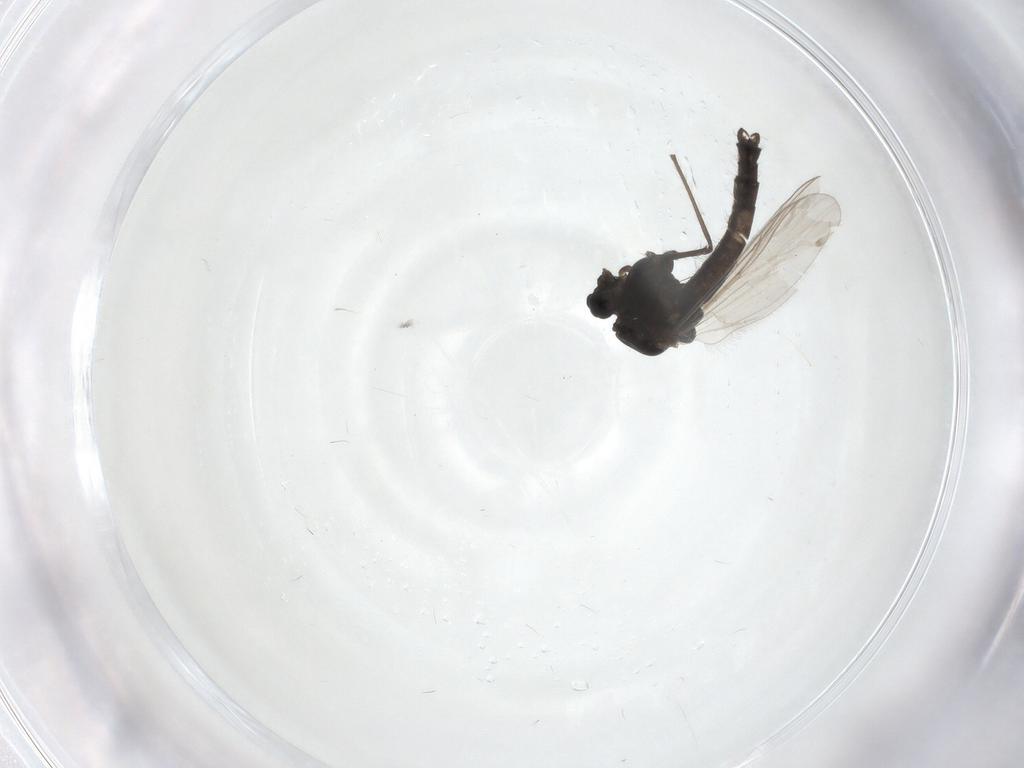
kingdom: Animalia
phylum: Arthropoda
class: Insecta
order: Diptera
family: Chironomidae
